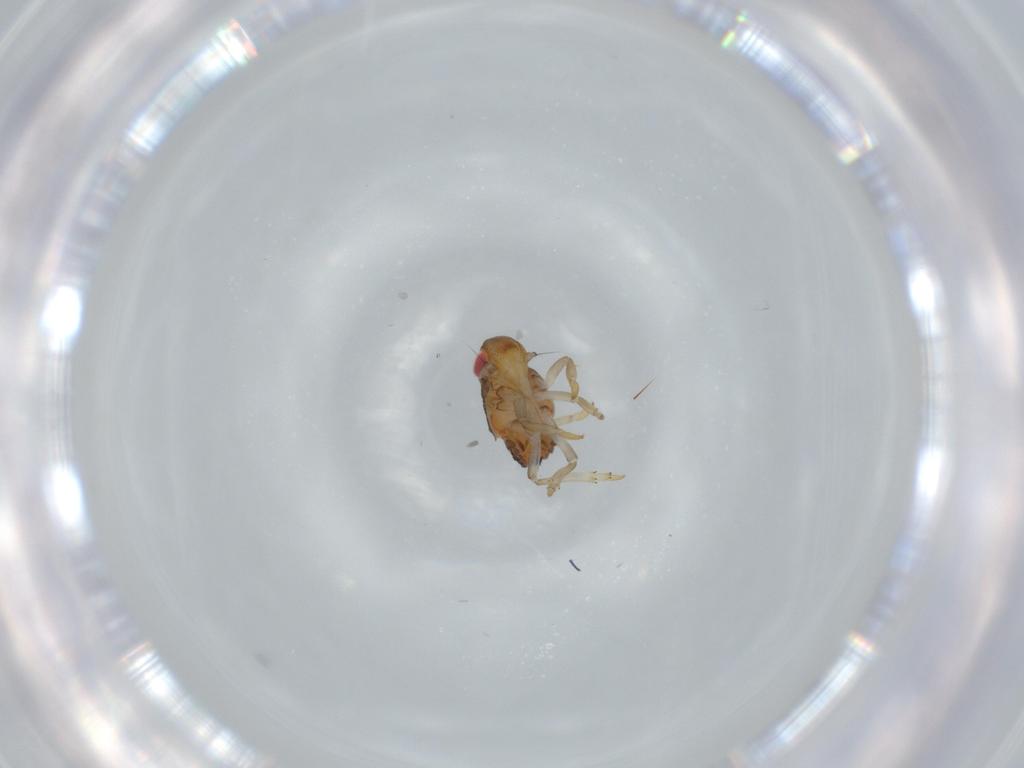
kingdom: Animalia
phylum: Arthropoda
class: Insecta
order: Hemiptera
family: Issidae
